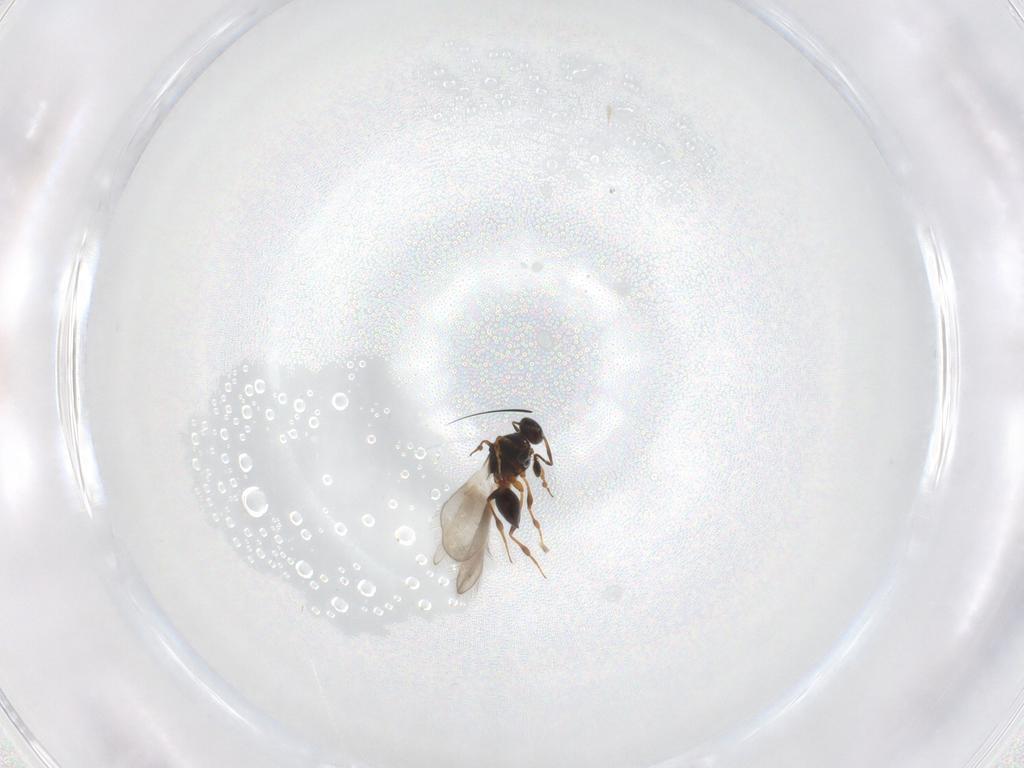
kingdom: Animalia
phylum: Arthropoda
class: Insecta
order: Hymenoptera
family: Platygastridae
